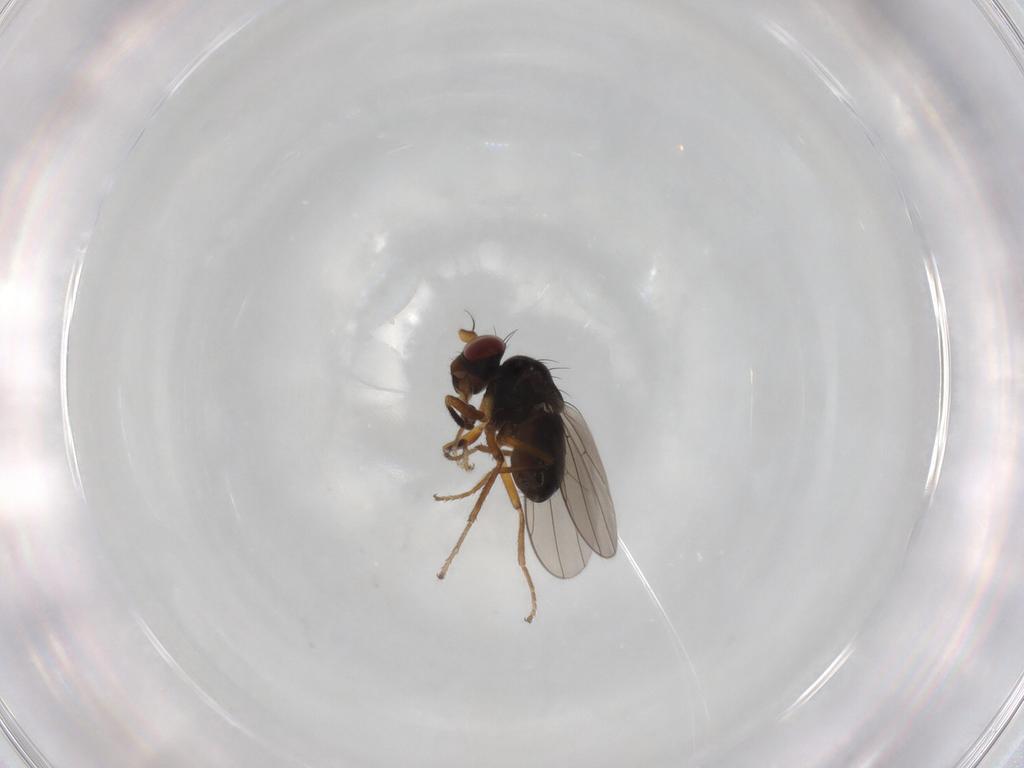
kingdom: Animalia
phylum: Arthropoda
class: Insecta
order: Diptera
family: Ephydridae
